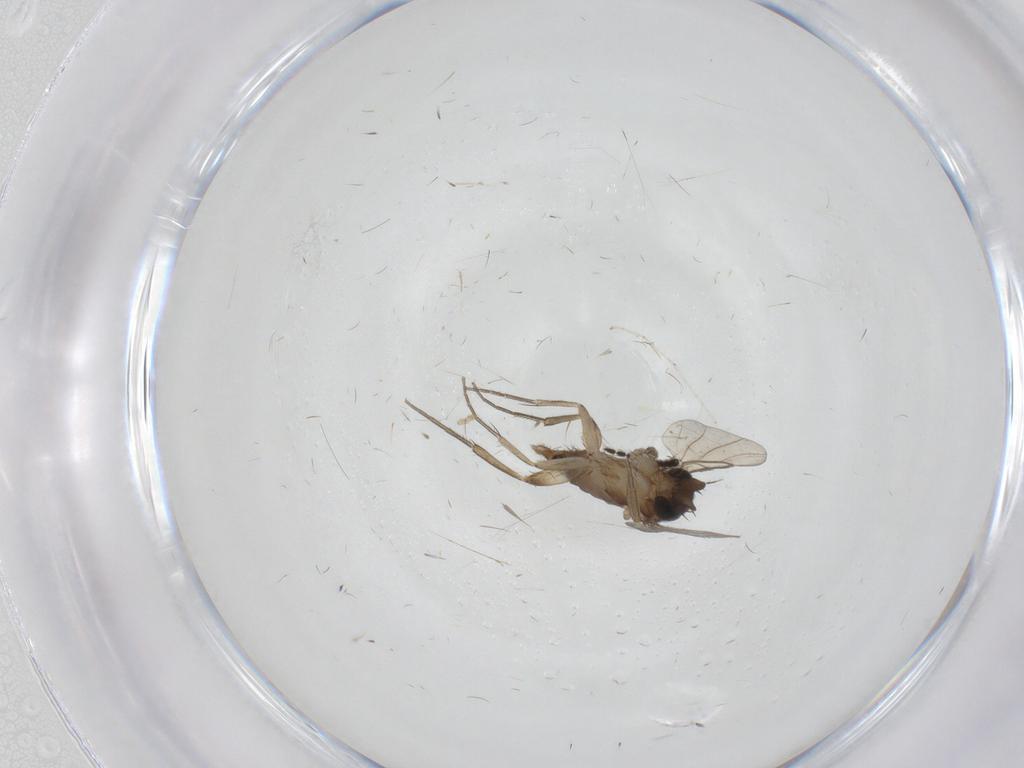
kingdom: Animalia
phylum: Arthropoda
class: Insecta
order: Diptera
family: Phoridae
